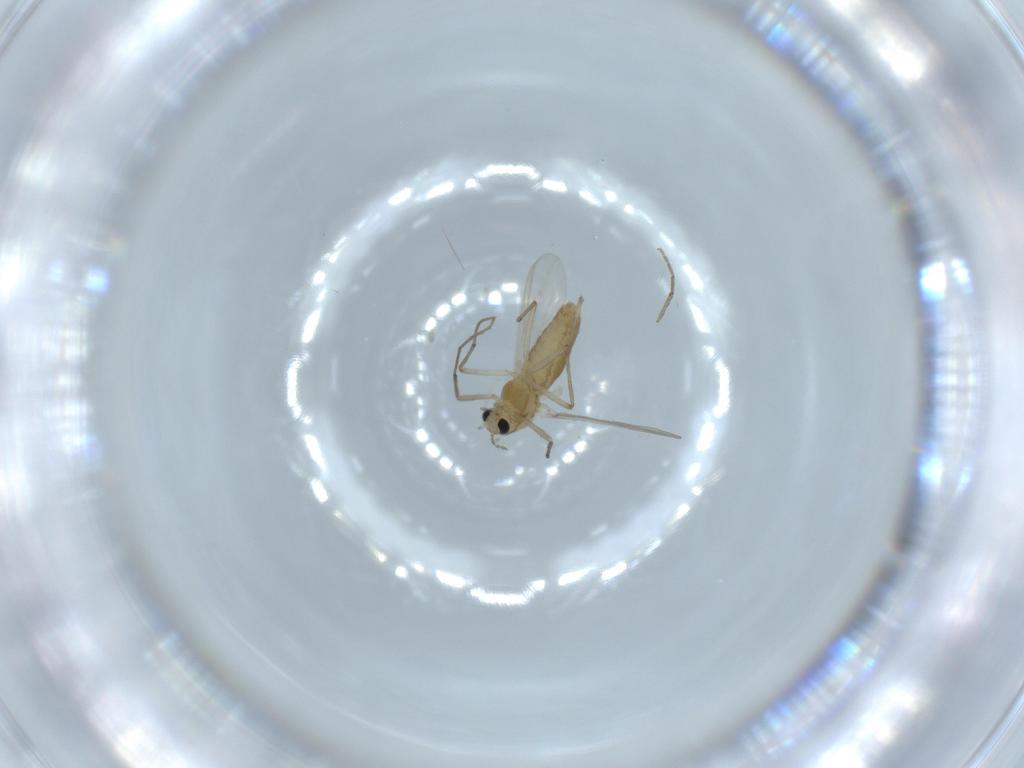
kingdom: Animalia
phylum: Arthropoda
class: Insecta
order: Diptera
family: Chironomidae
